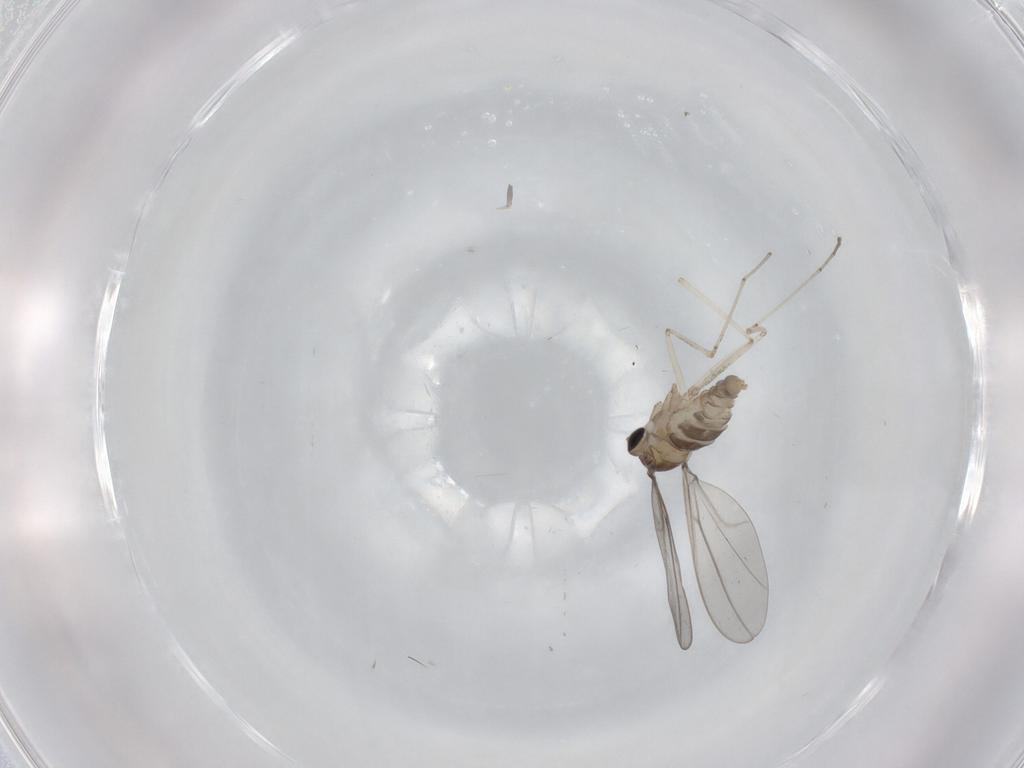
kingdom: Animalia
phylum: Arthropoda
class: Insecta
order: Diptera
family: Cecidomyiidae
